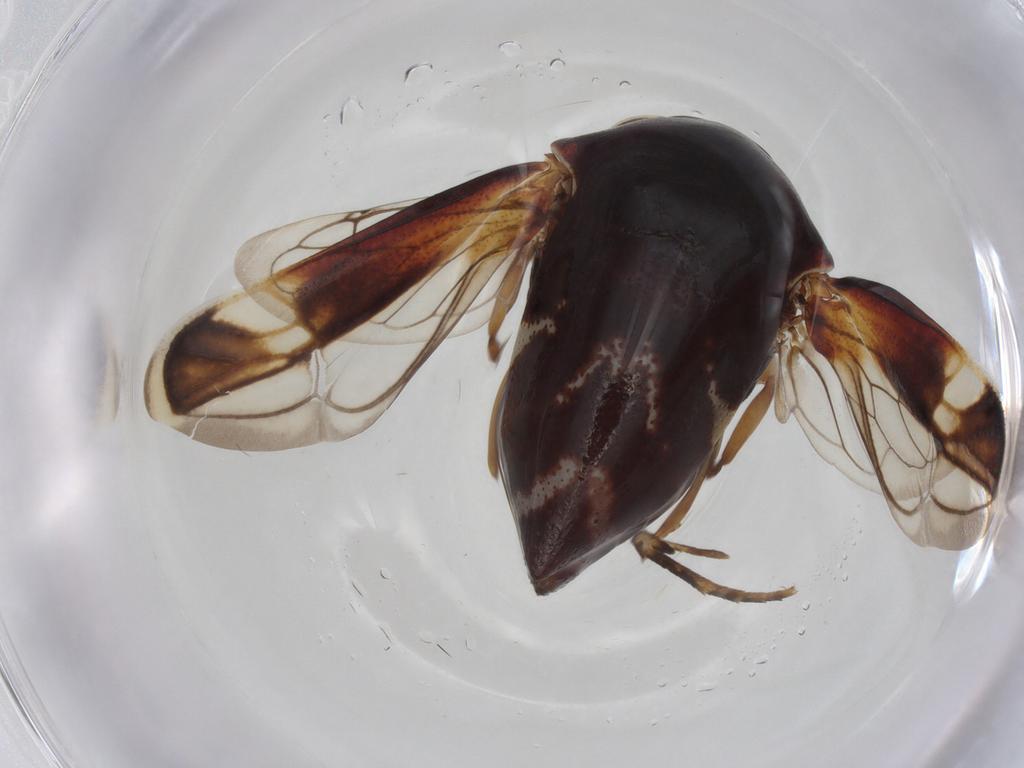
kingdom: Animalia
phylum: Arthropoda
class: Insecta
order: Hemiptera
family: Membracidae
